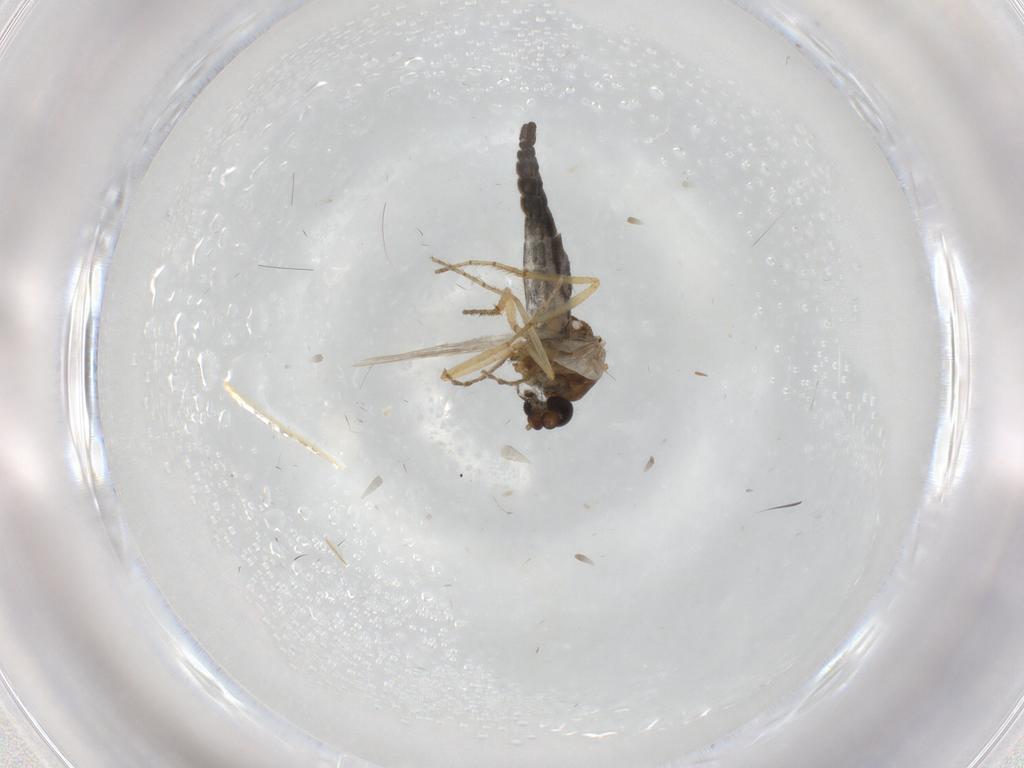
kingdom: Animalia
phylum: Arthropoda
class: Insecta
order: Diptera
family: Ceratopogonidae
